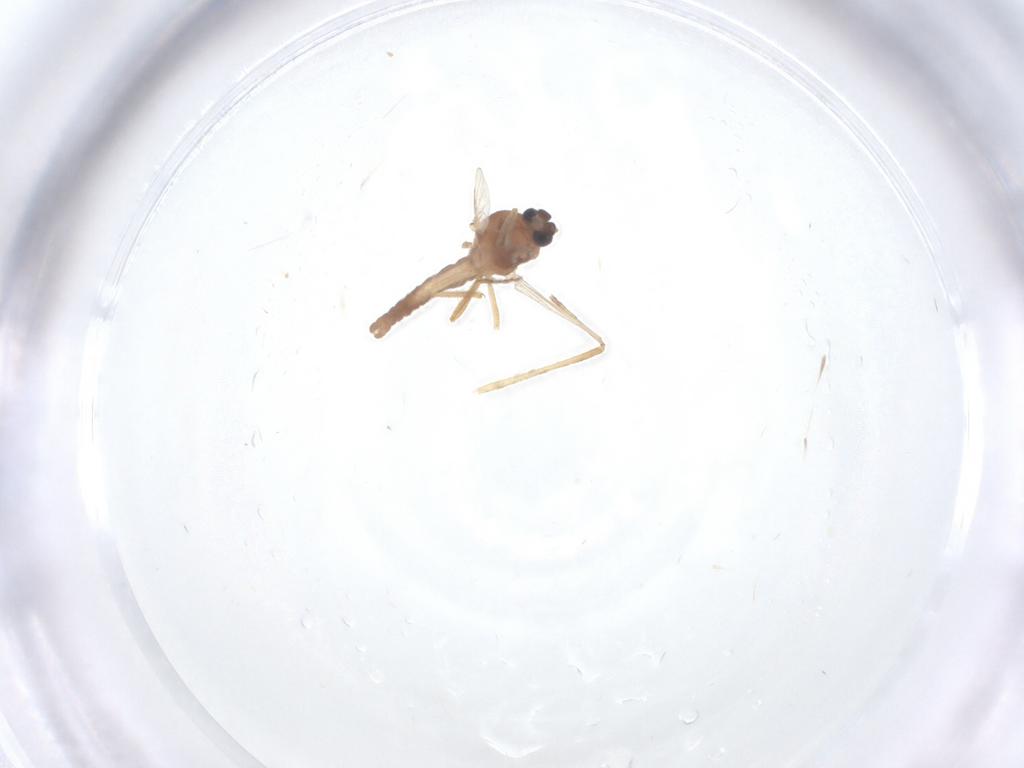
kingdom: Animalia
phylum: Arthropoda
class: Insecta
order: Diptera
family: Ceratopogonidae
